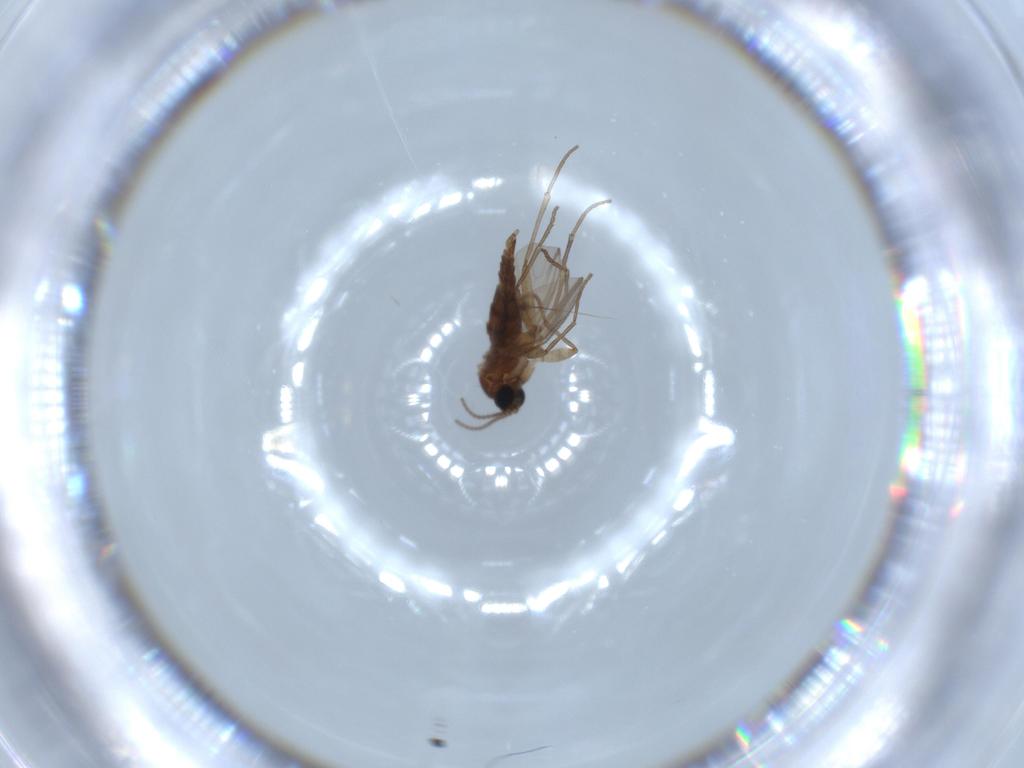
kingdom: Animalia
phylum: Arthropoda
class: Insecta
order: Diptera
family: Sciaridae
